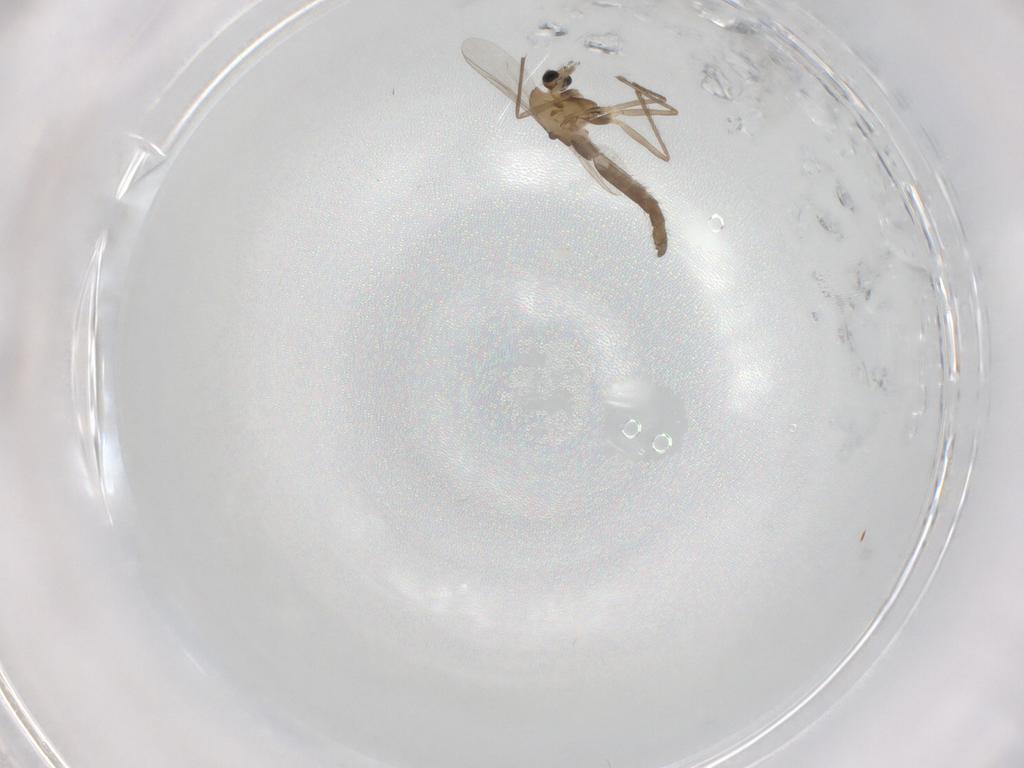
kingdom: Animalia
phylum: Arthropoda
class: Insecta
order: Diptera
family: Chironomidae
